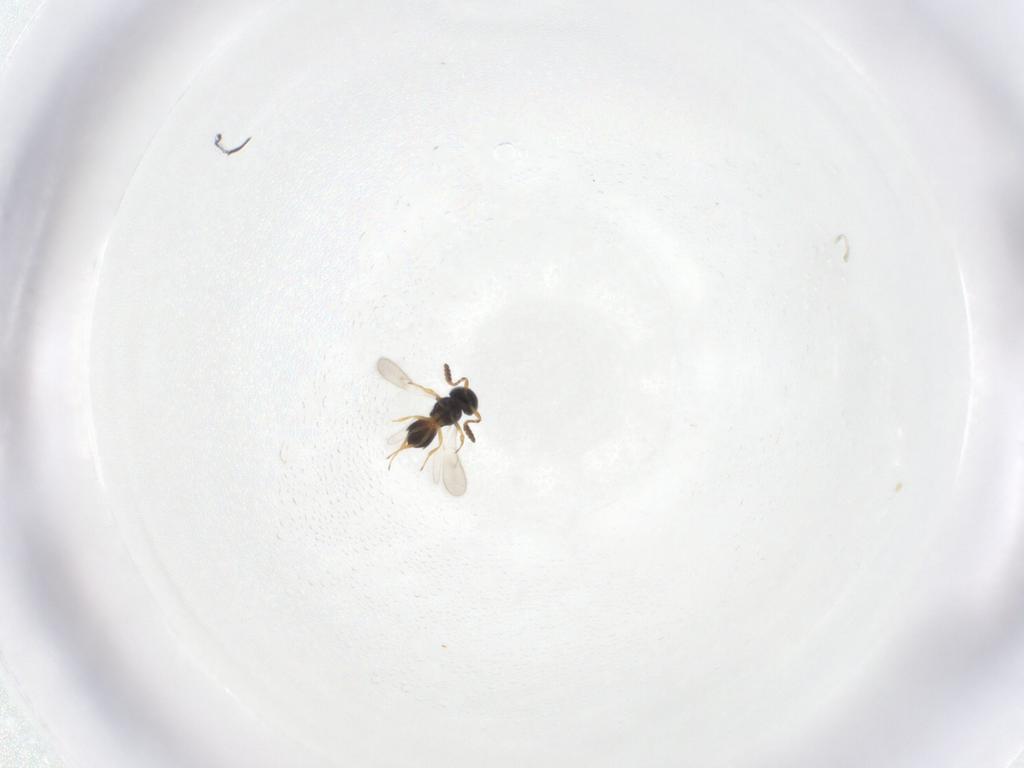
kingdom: Animalia
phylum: Arthropoda
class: Insecta
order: Hymenoptera
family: Scelionidae
